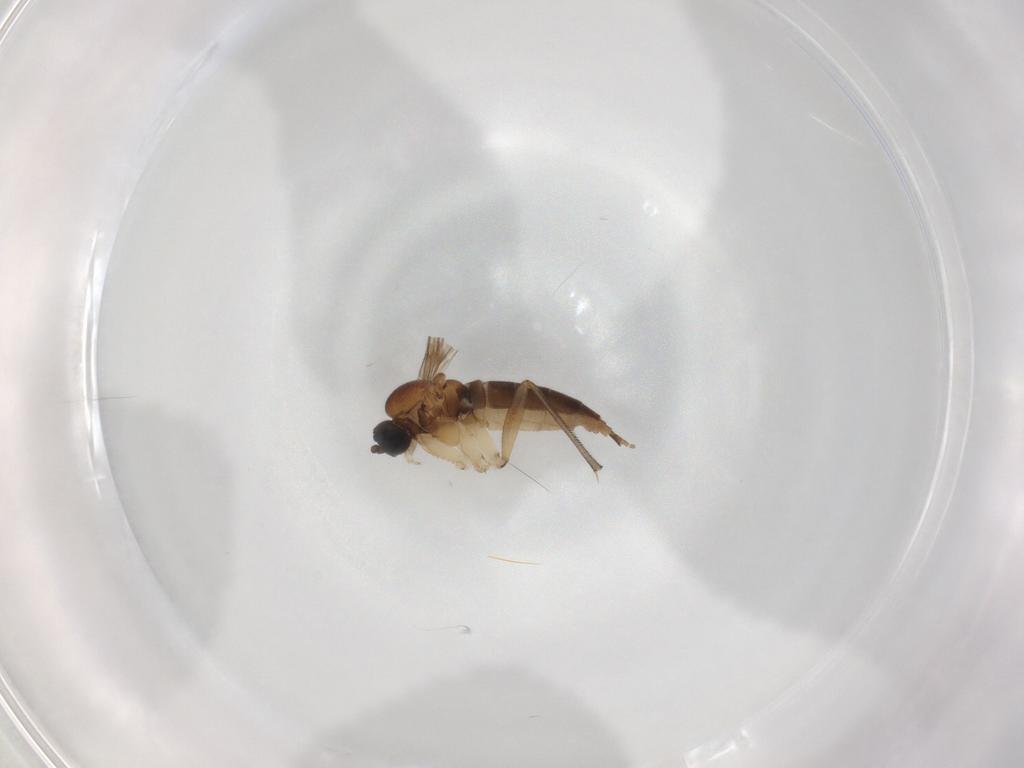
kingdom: Animalia
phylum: Arthropoda
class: Insecta
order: Diptera
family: Sciaridae
